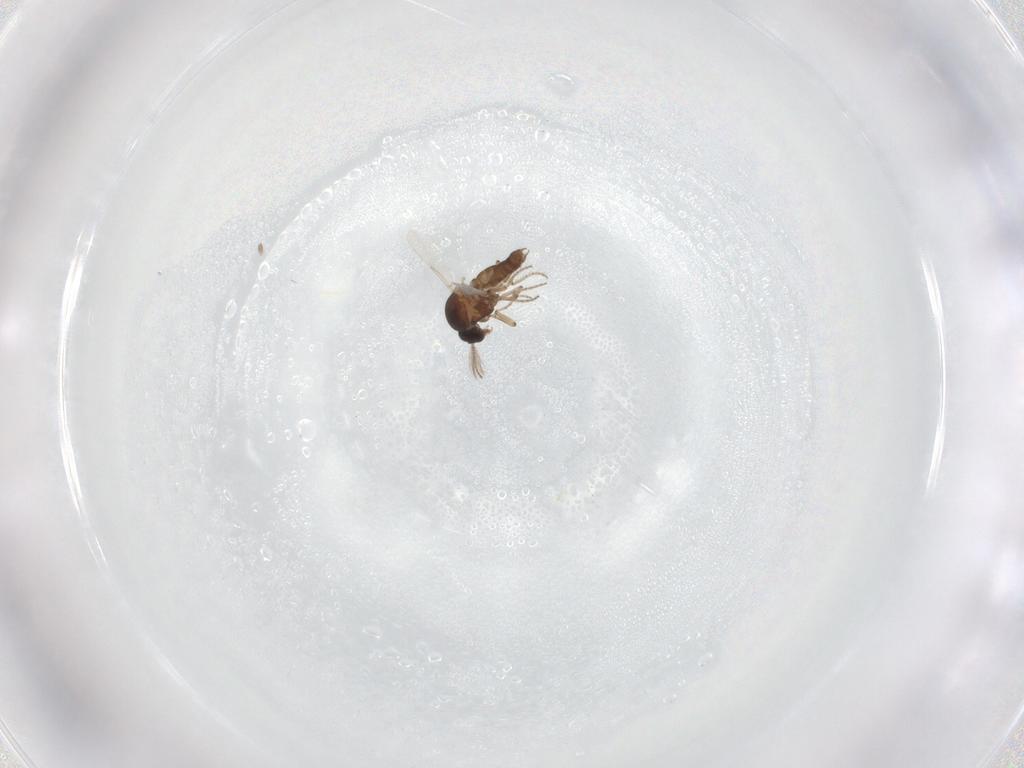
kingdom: Animalia
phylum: Arthropoda
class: Insecta
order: Diptera
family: Ceratopogonidae
